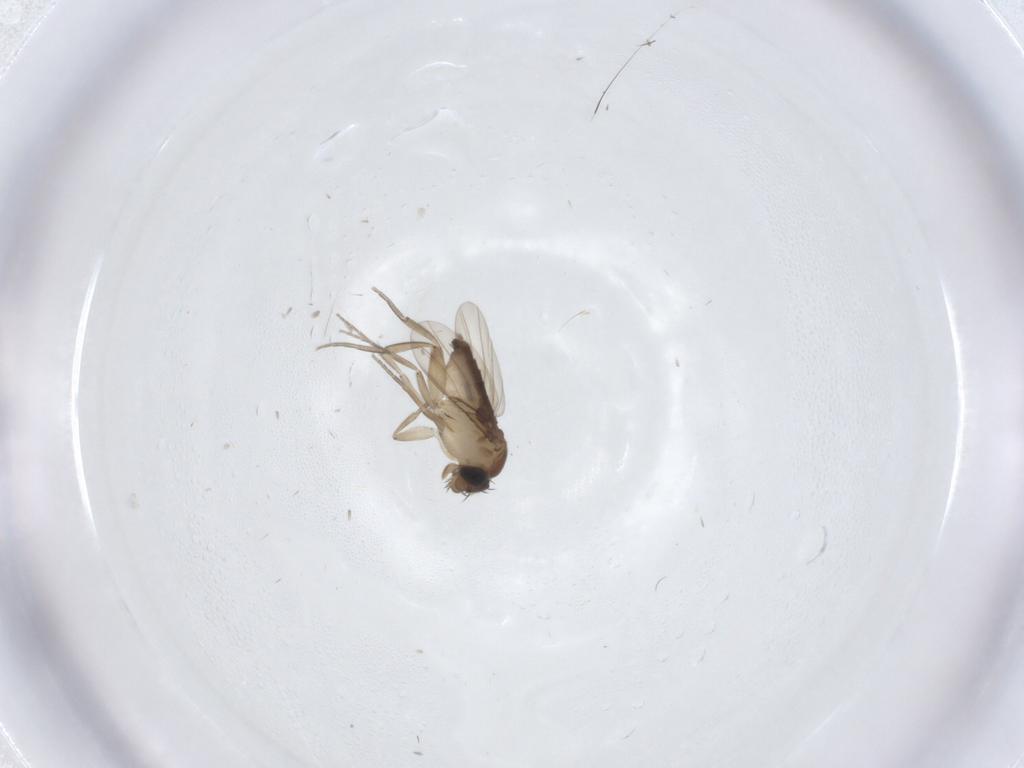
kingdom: Animalia
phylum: Arthropoda
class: Insecta
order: Diptera
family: Phoridae
